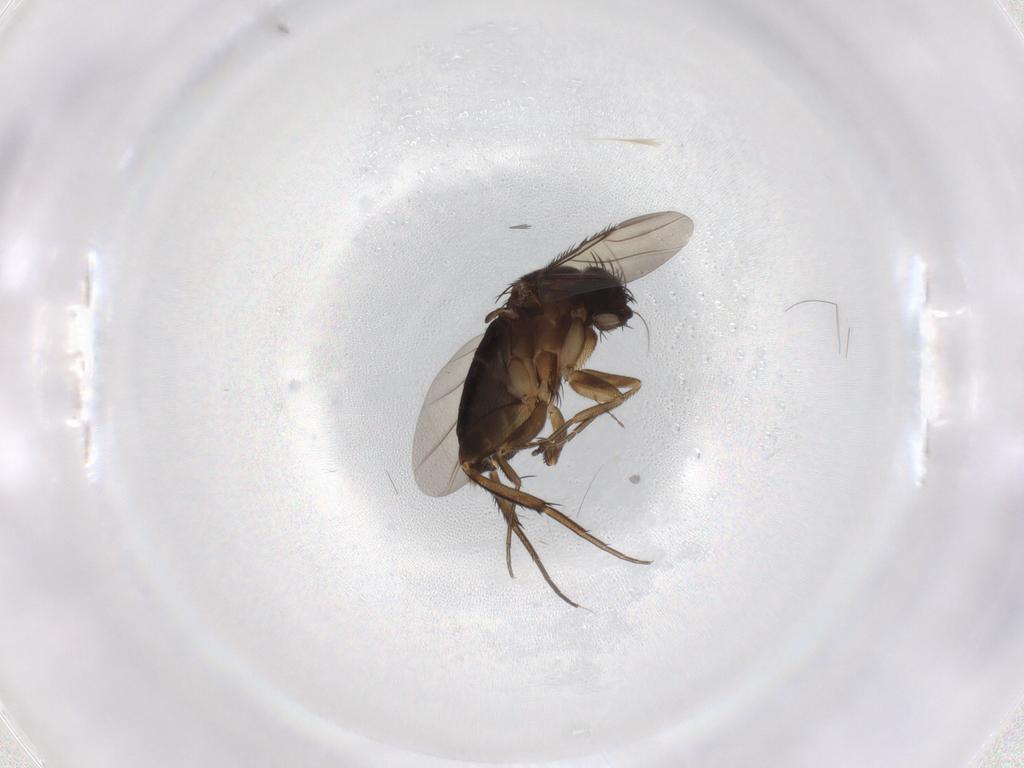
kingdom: Animalia
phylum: Arthropoda
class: Insecta
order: Diptera
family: Phoridae
